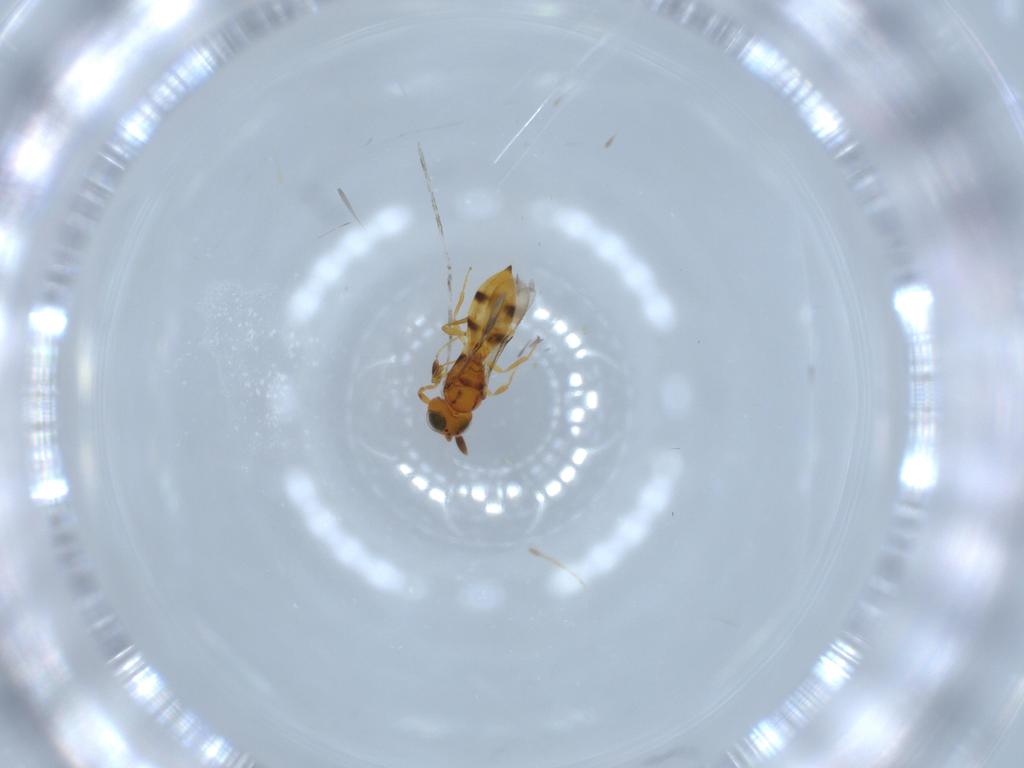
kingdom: Animalia
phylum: Arthropoda
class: Insecta
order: Hymenoptera
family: Scelionidae
